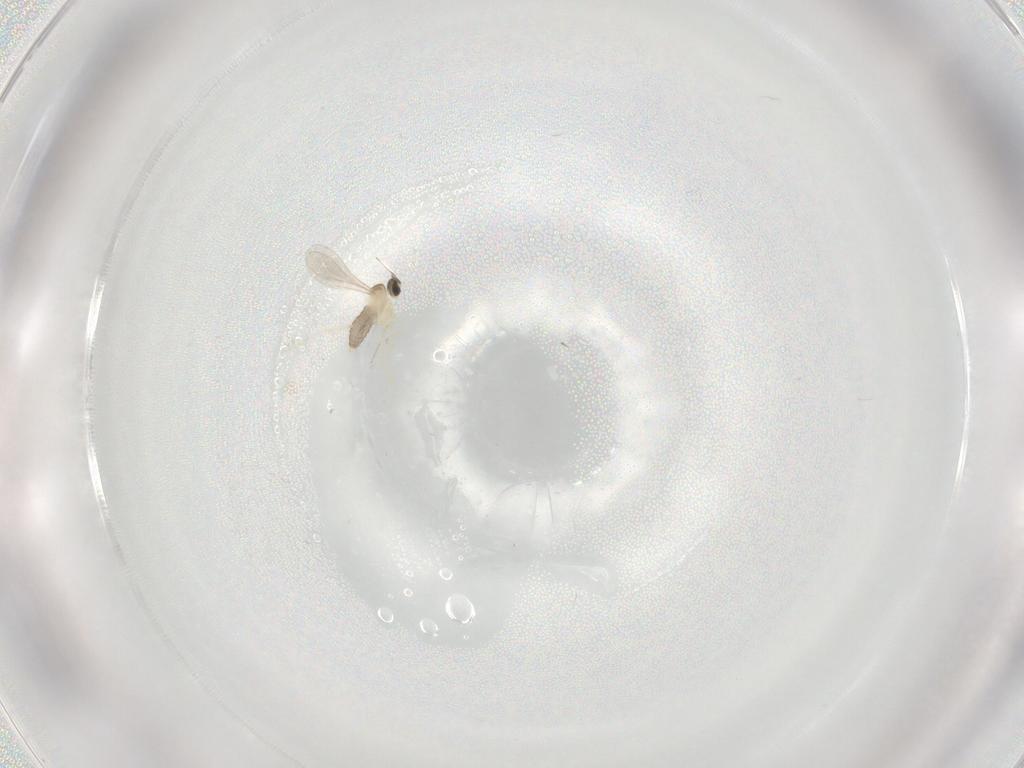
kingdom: Animalia
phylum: Arthropoda
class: Insecta
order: Diptera
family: Cecidomyiidae
